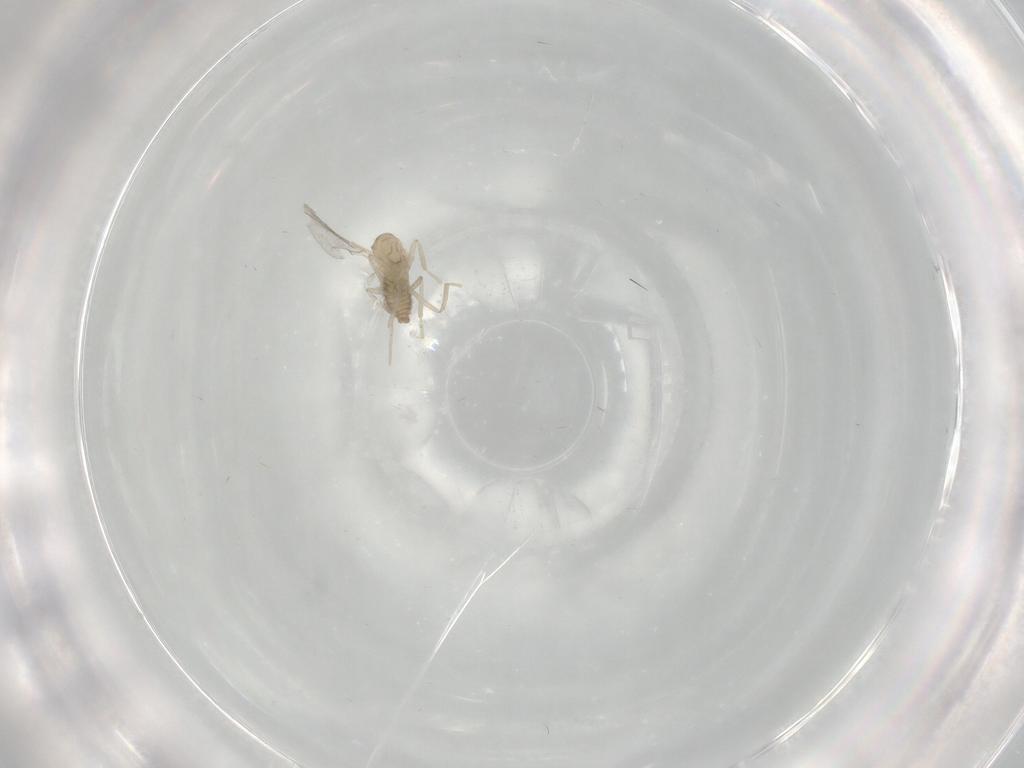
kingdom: Animalia
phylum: Arthropoda
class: Insecta
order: Diptera
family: Cecidomyiidae
